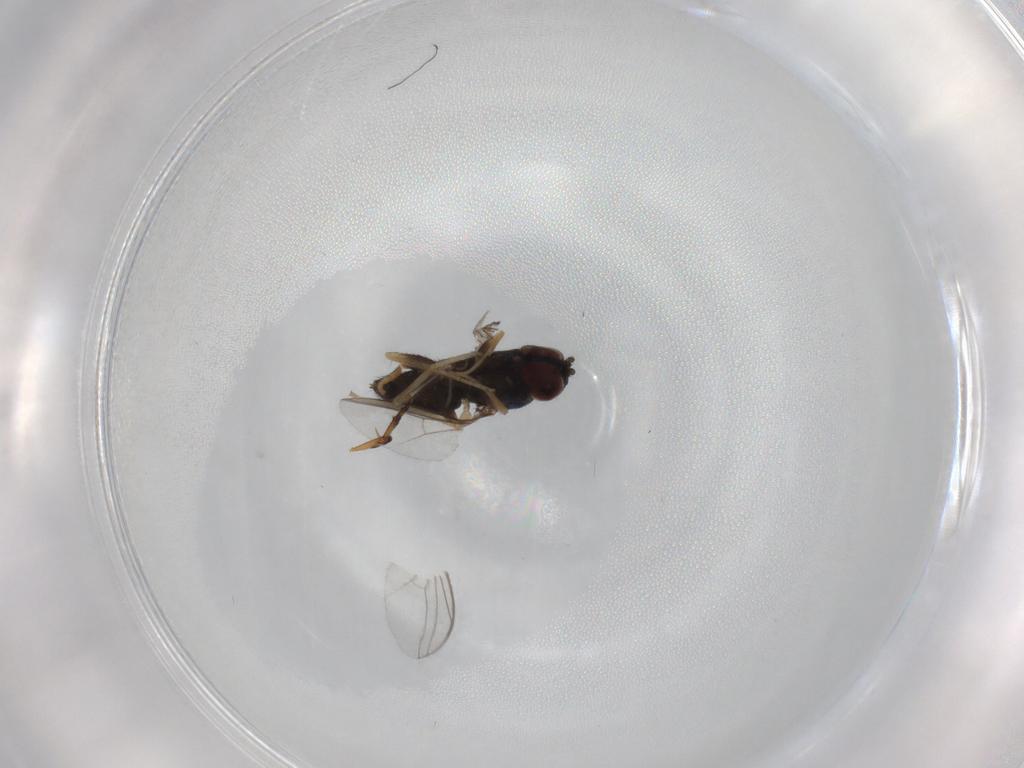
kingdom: Animalia
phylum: Arthropoda
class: Insecta
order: Diptera
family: Dolichopodidae
